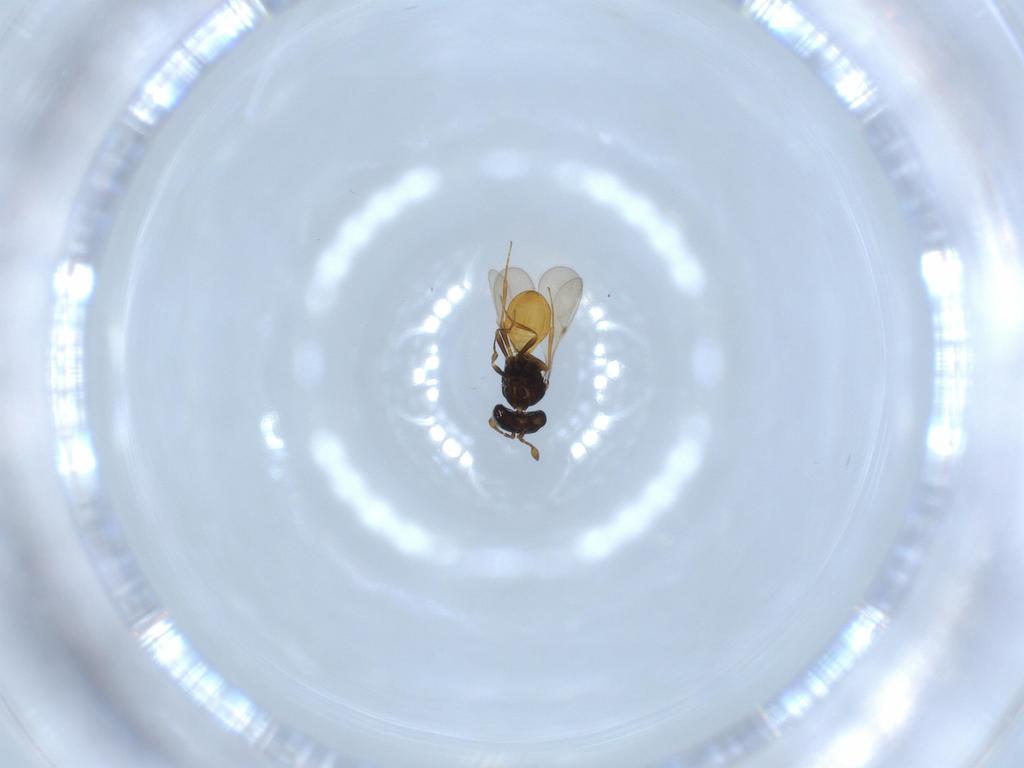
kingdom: Animalia
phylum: Arthropoda
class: Insecta
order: Hymenoptera
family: Scelionidae
